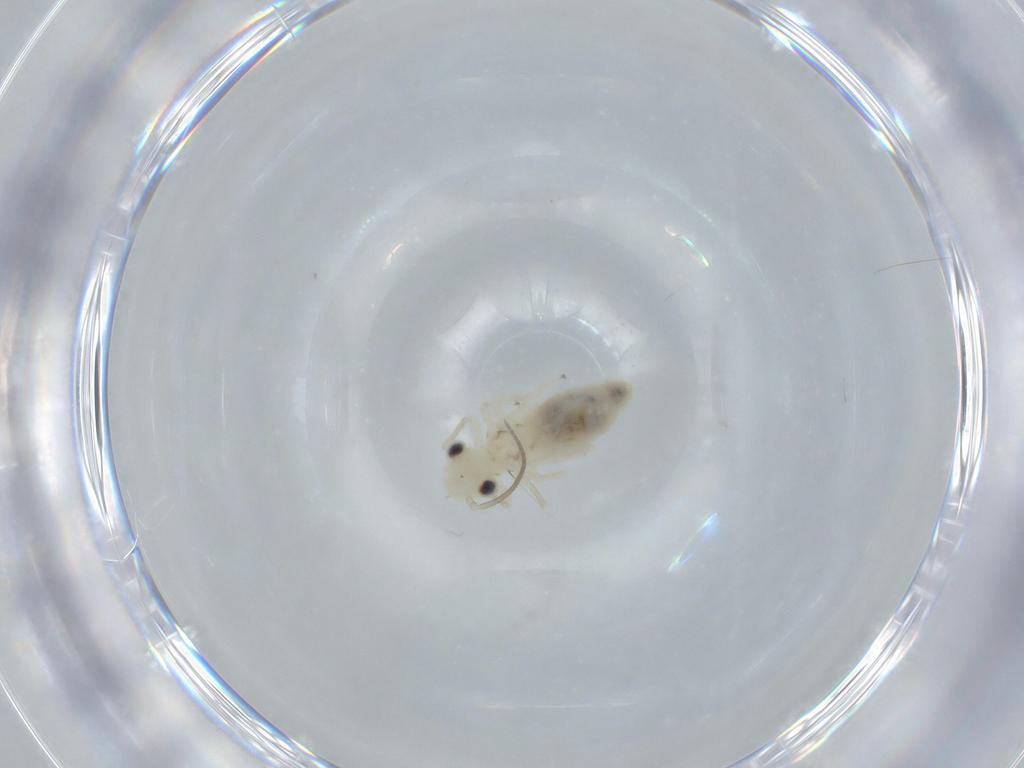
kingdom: Animalia
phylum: Arthropoda
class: Insecta
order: Psocodea
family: Caeciliusidae
